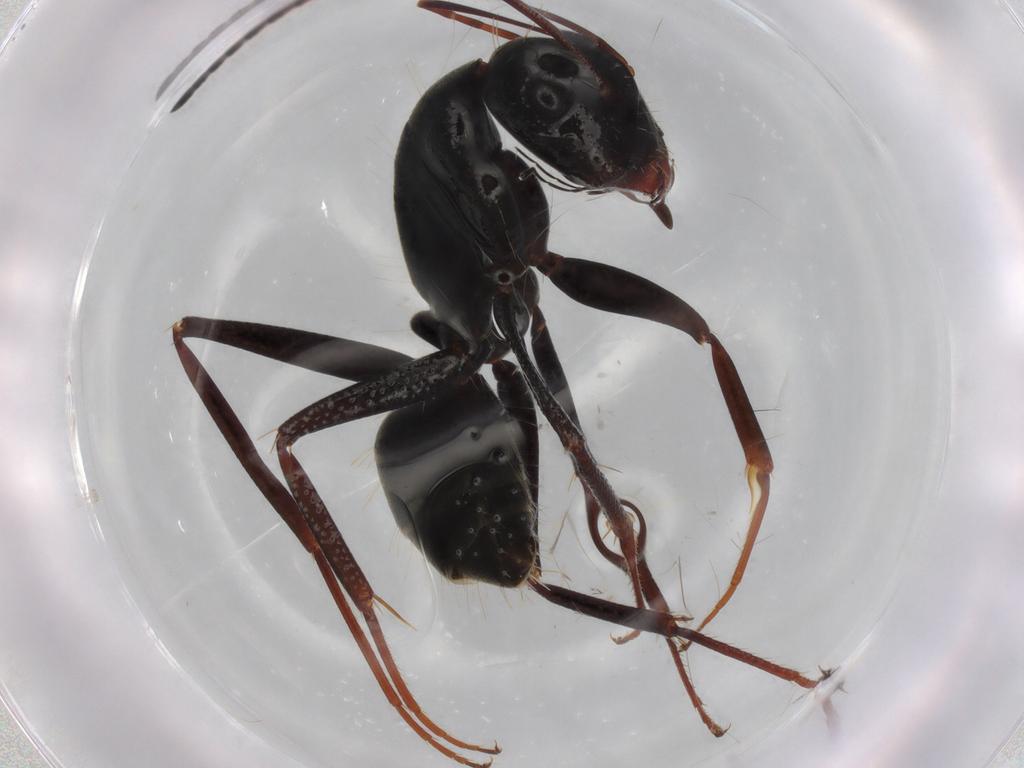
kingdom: Animalia
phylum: Arthropoda
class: Insecta
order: Hymenoptera
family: Formicidae
